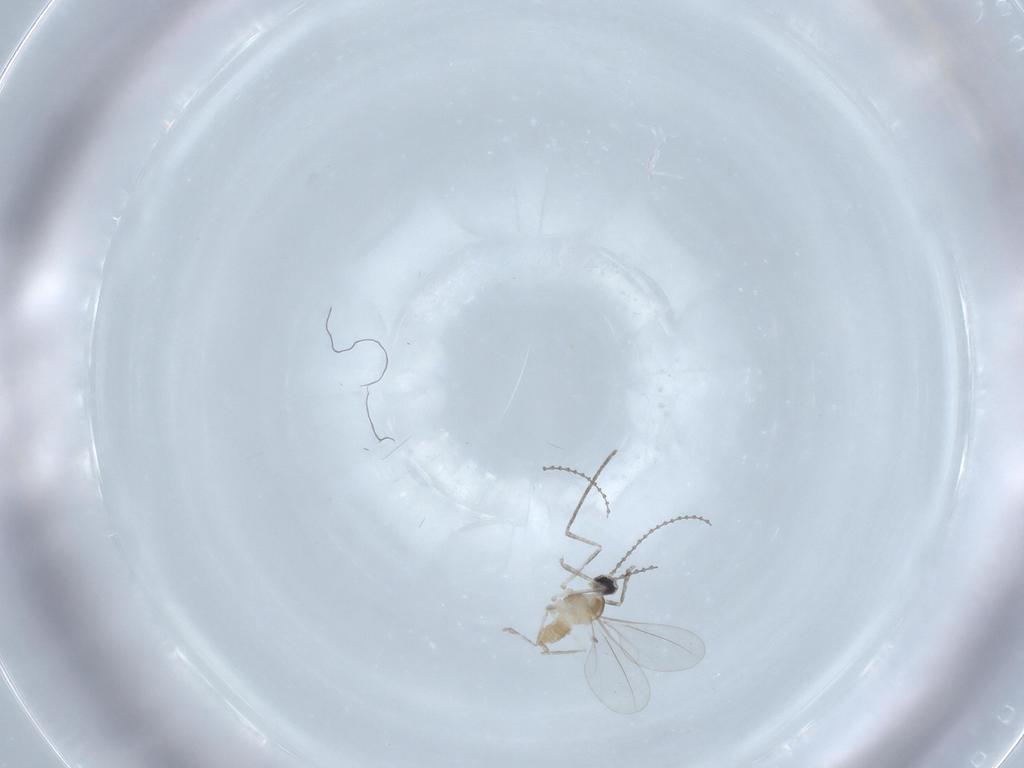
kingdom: Animalia
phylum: Arthropoda
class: Insecta
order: Diptera
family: Cecidomyiidae
